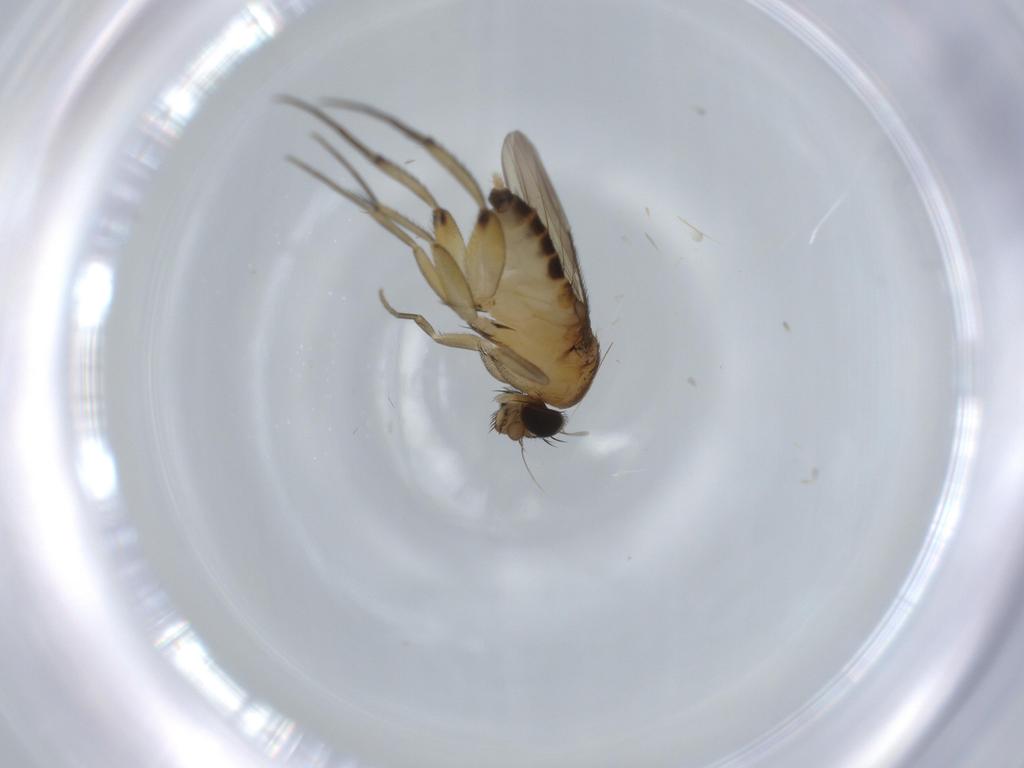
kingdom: Animalia
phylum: Arthropoda
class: Insecta
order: Diptera
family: Phoridae
